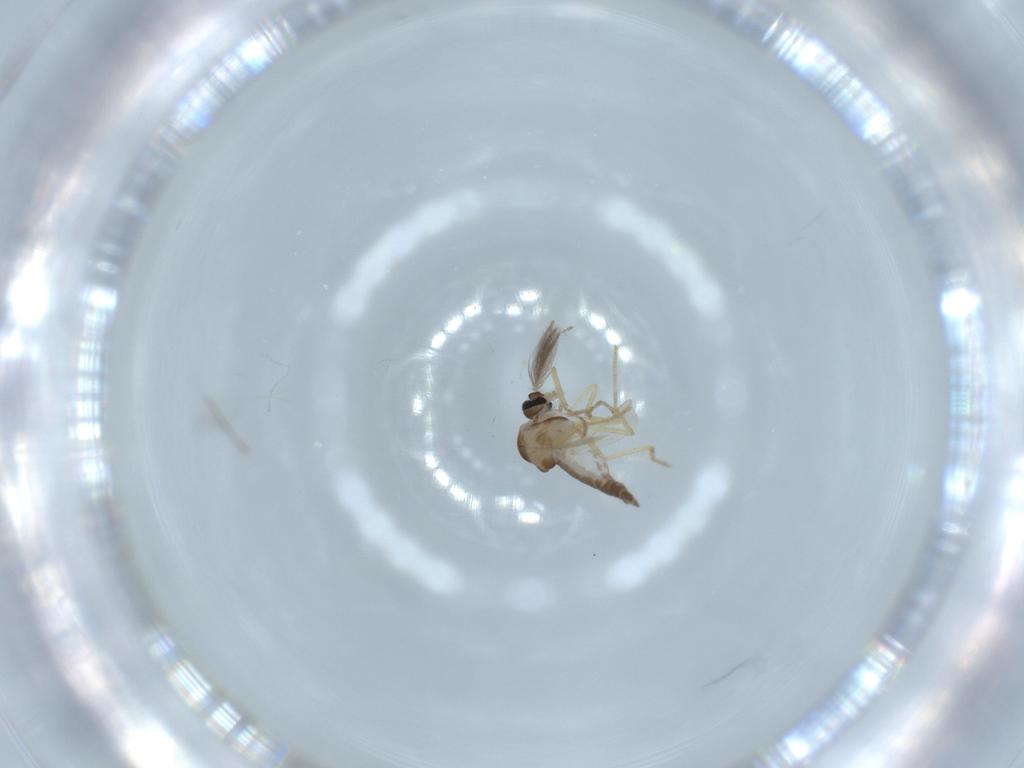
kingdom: Animalia
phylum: Arthropoda
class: Insecta
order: Diptera
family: Ceratopogonidae
